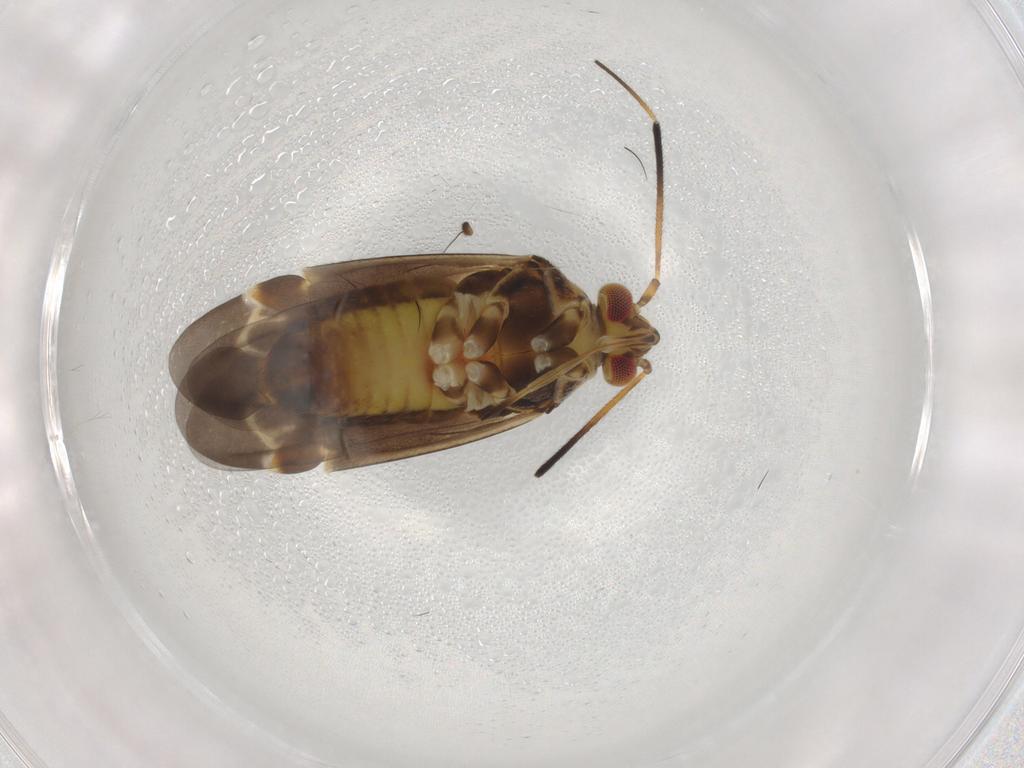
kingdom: Animalia
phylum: Arthropoda
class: Insecta
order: Hemiptera
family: Miridae
